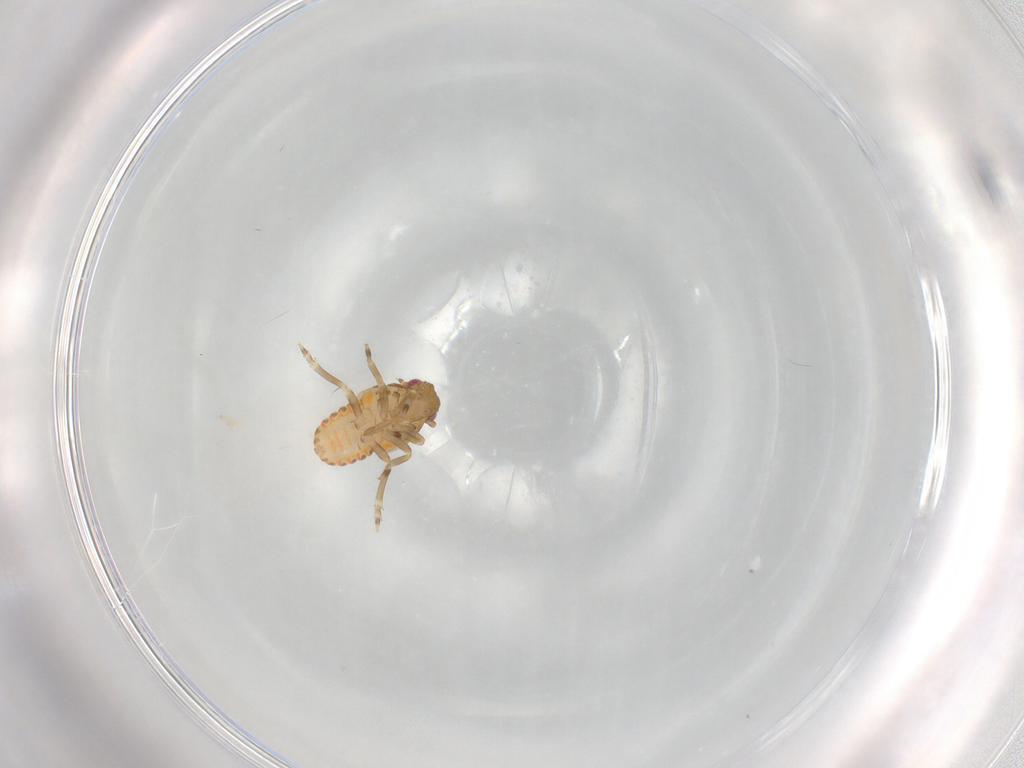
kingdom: Animalia
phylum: Arthropoda
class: Insecta
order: Hemiptera
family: Flatidae
